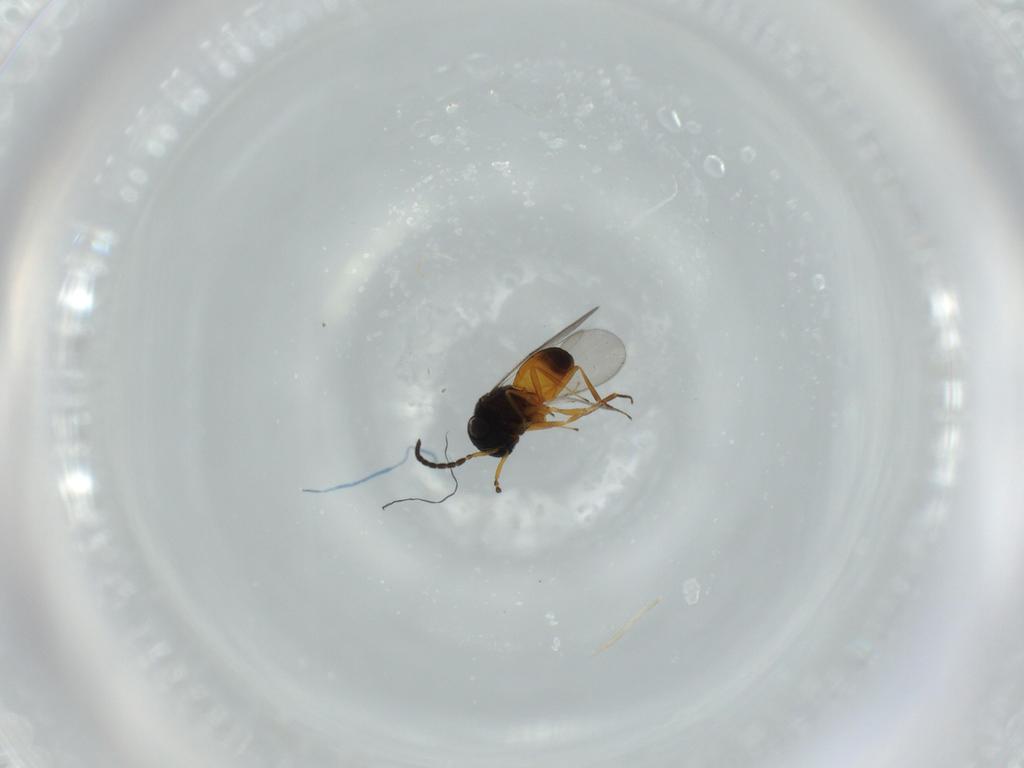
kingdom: Animalia
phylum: Arthropoda
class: Insecta
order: Hymenoptera
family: Scelionidae
